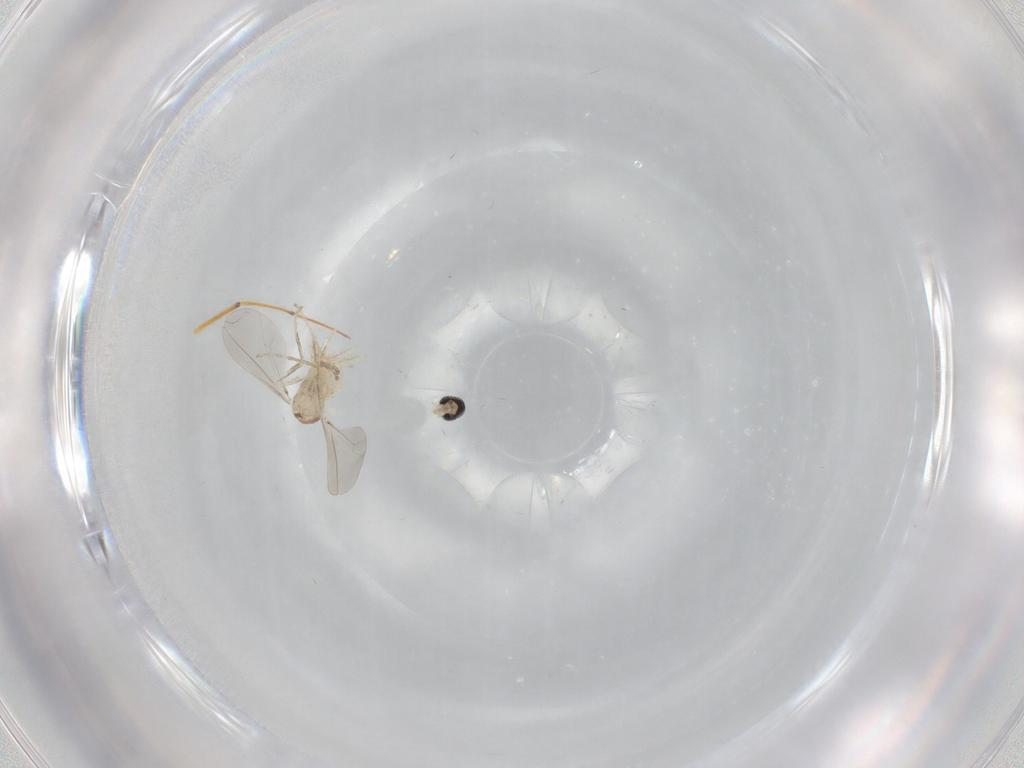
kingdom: Animalia
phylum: Arthropoda
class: Insecta
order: Diptera
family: Cecidomyiidae
